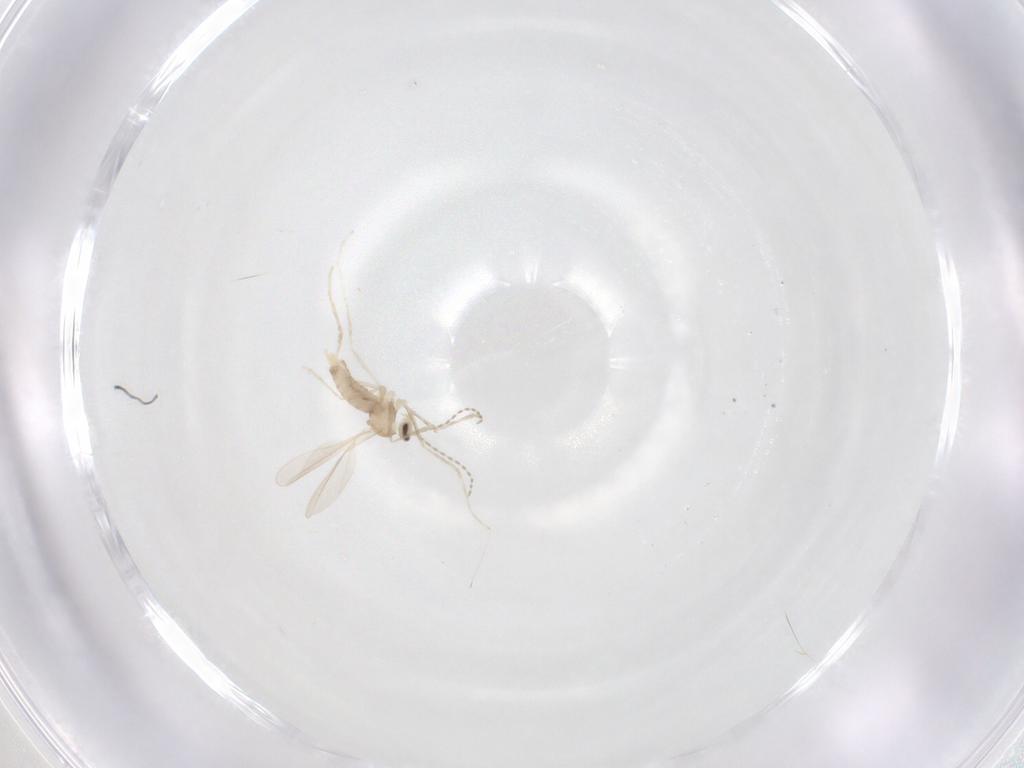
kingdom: Animalia
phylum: Arthropoda
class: Insecta
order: Diptera
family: Cecidomyiidae
